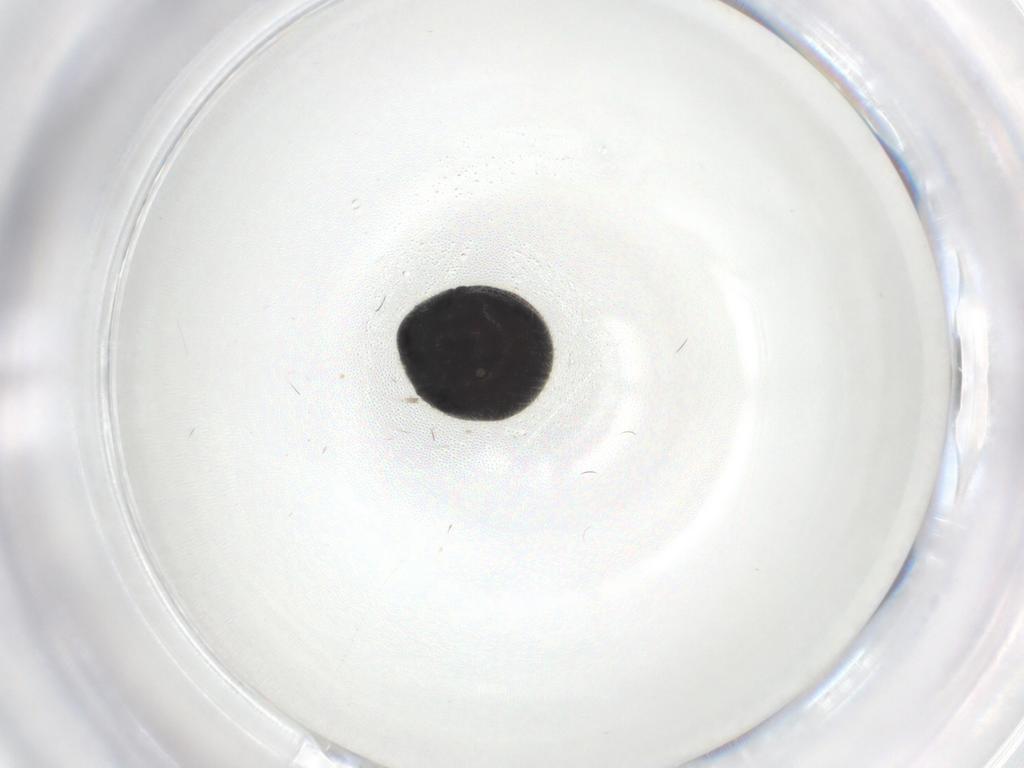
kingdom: Animalia
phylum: Arthropoda
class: Insecta
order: Coleoptera
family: Ptinidae
